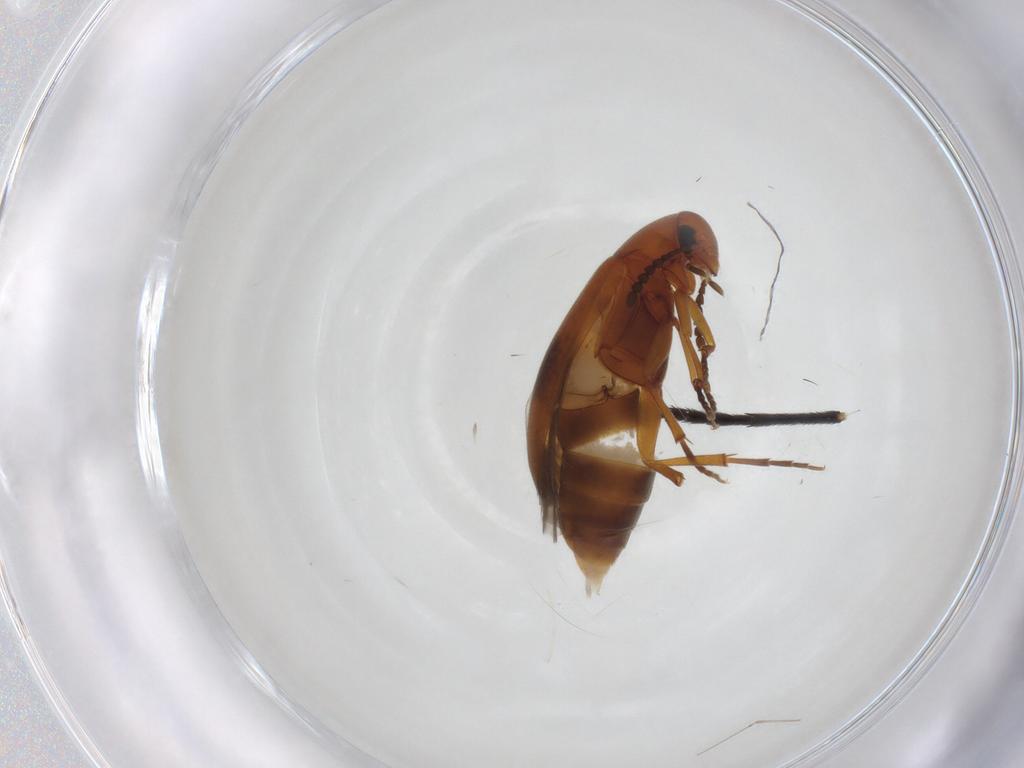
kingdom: Animalia
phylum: Arthropoda
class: Insecta
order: Coleoptera
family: Scraptiidae
